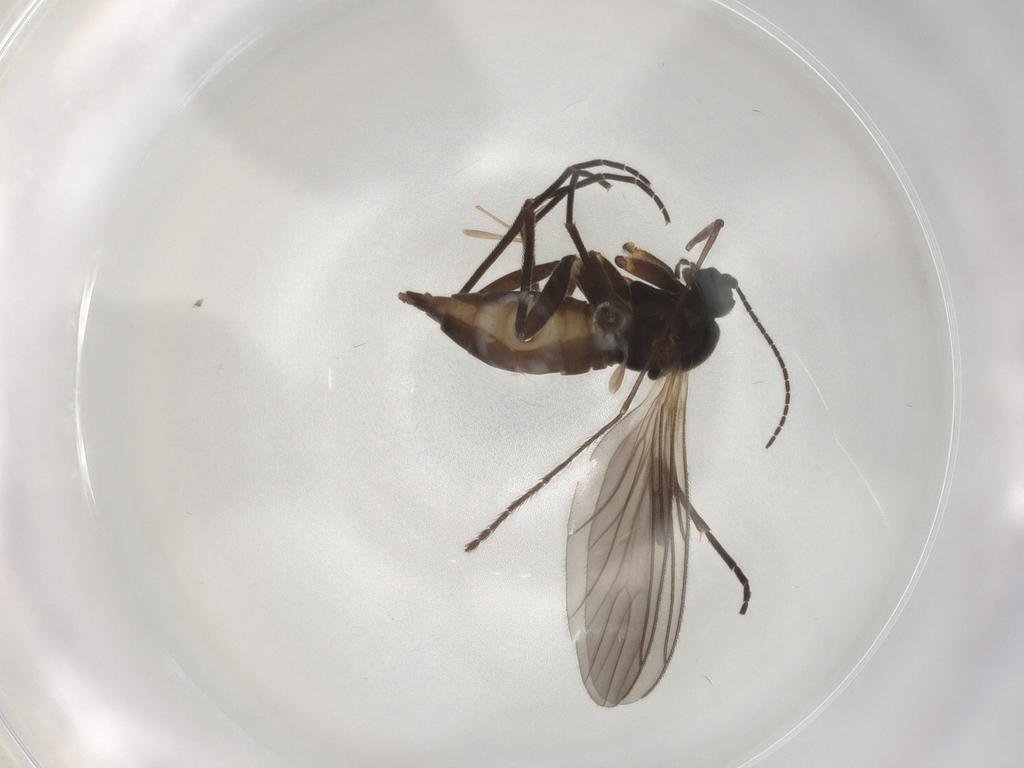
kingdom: Animalia
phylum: Arthropoda
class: Insecta
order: Diptera
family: Sciaridae
